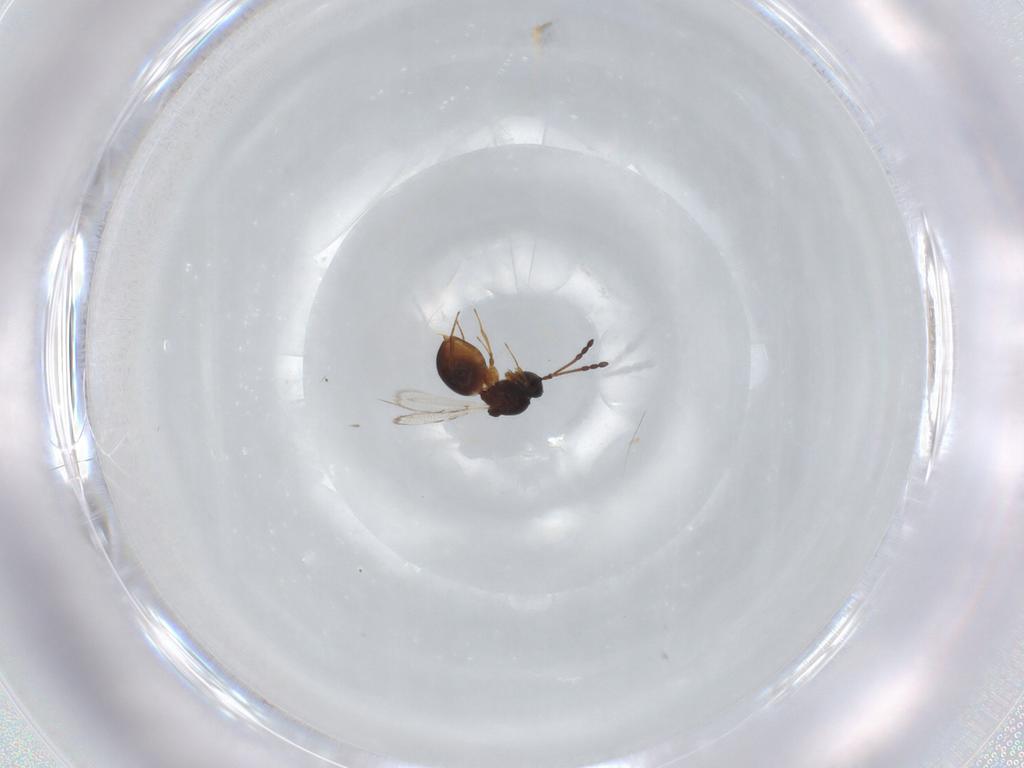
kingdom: Animalia
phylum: Arthropoda
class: Insecta
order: Hymenoptera
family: Figitidae
